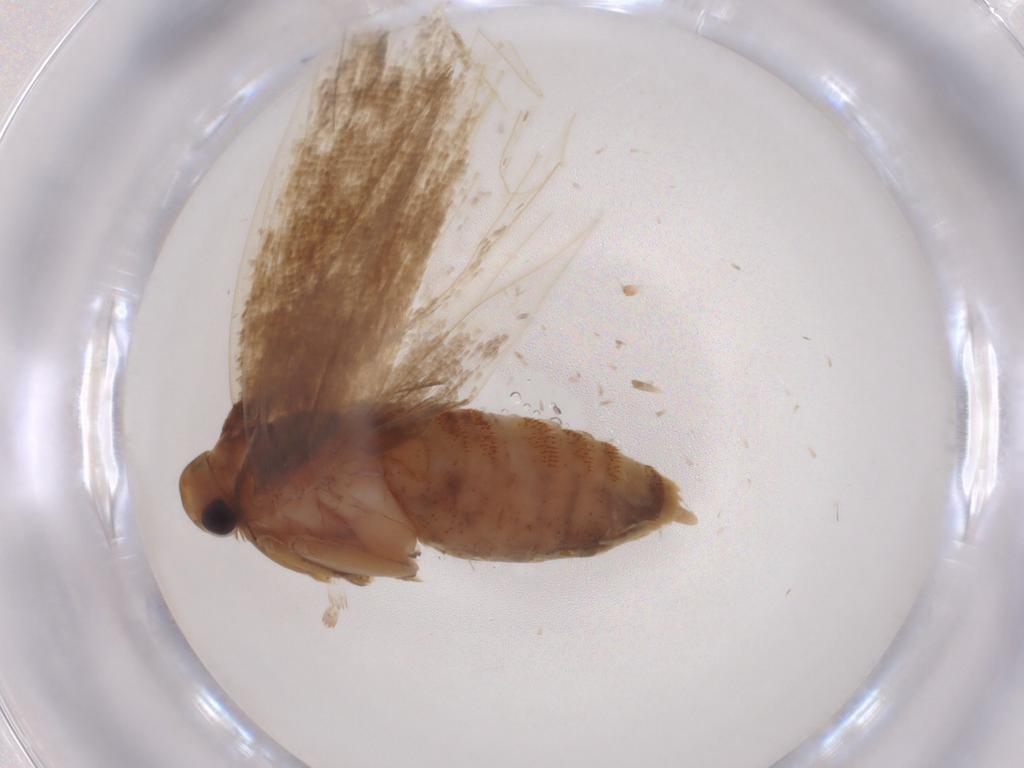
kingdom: Animalia
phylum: Arthropoda
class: Insecta
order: Lepidoptera
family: Lecithoceridae
